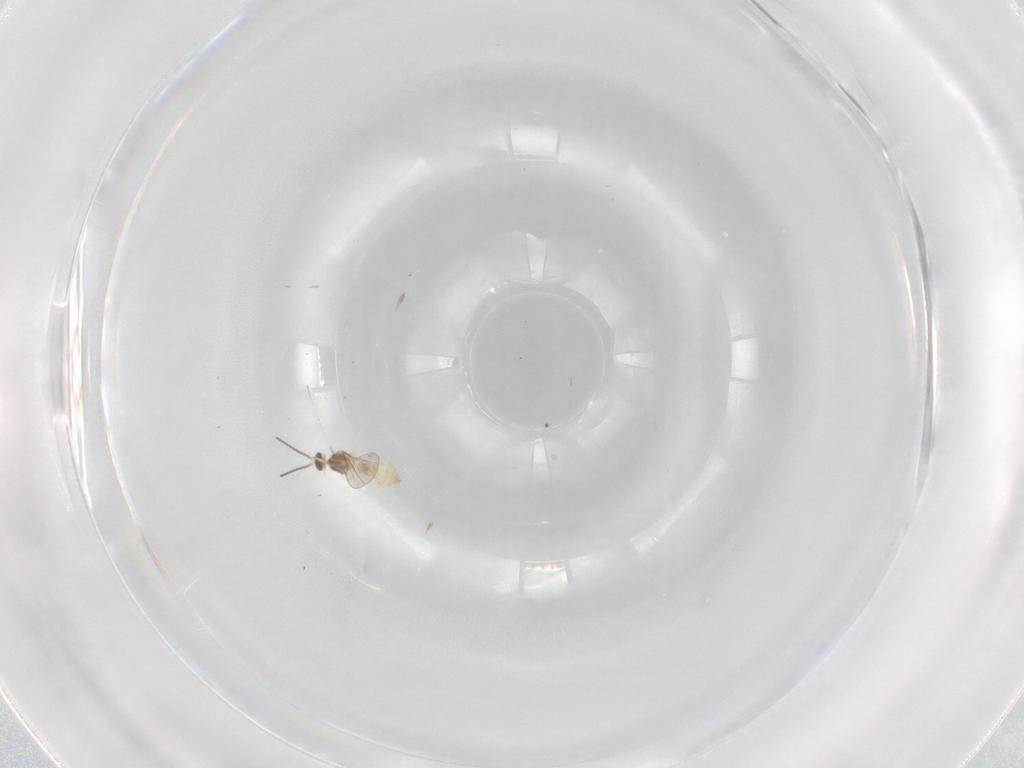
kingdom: Animalia
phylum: Arthropoda
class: Insecta
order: Diptera
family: Cecidomyiidae
